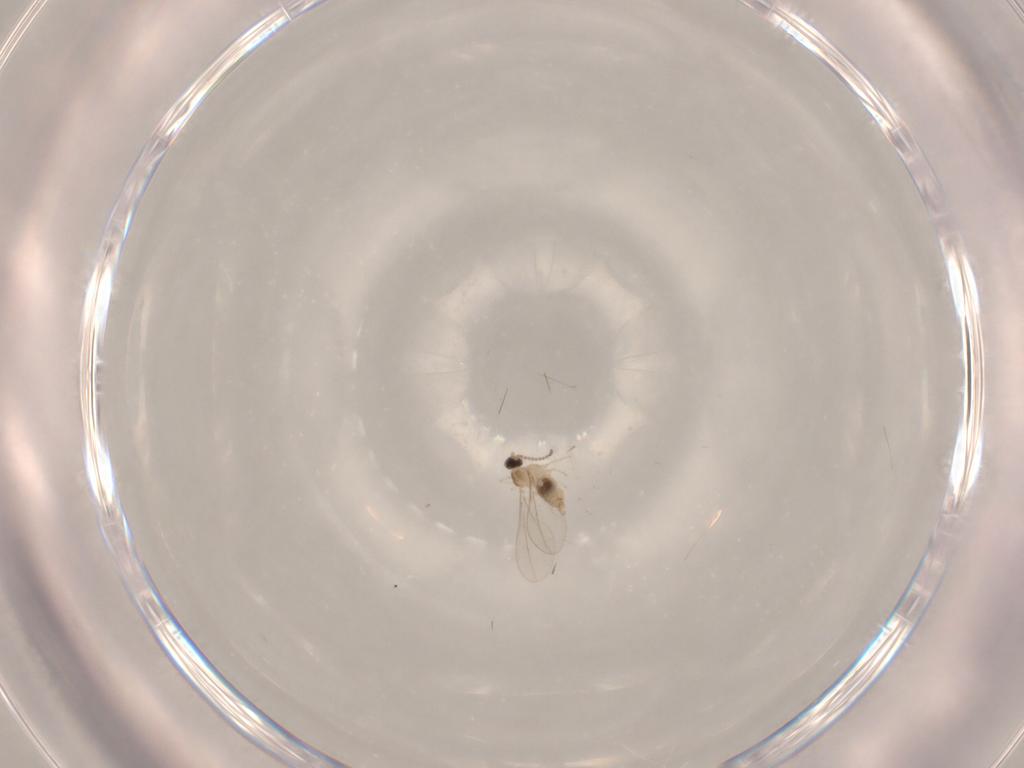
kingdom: Animalia
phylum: Arthropoda
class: Insecta
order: Diptera
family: Cecidomyiidae
